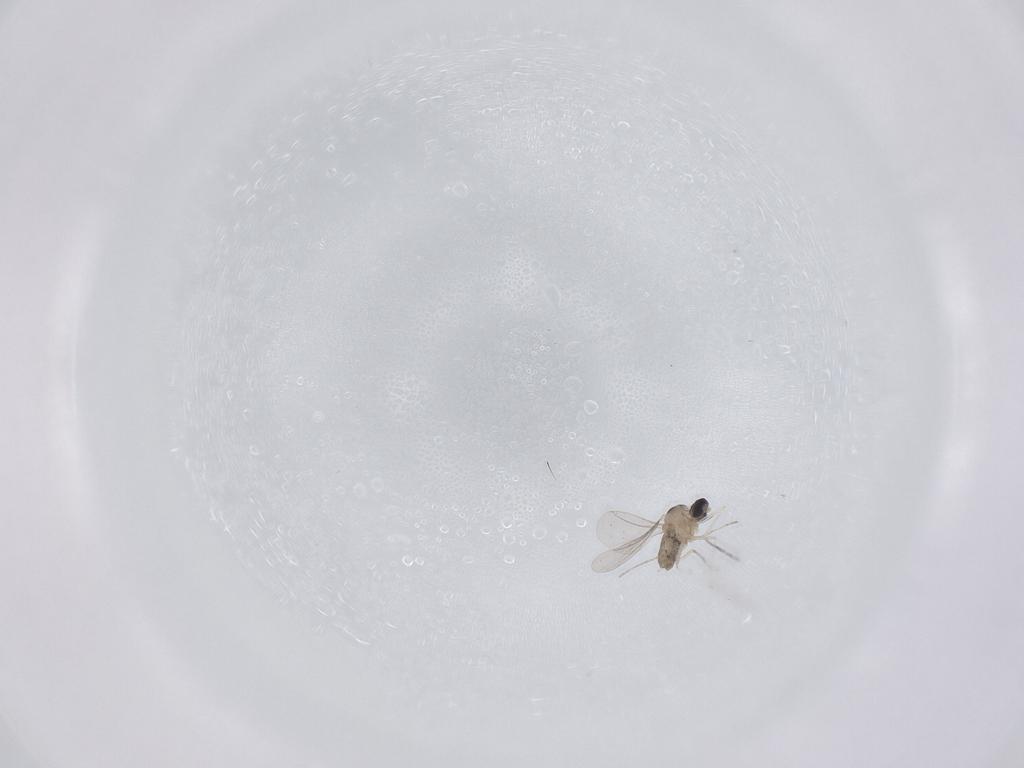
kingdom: Animalia
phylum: Arthropoda
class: Insecta
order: Diptera
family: Cecidomyiidae
